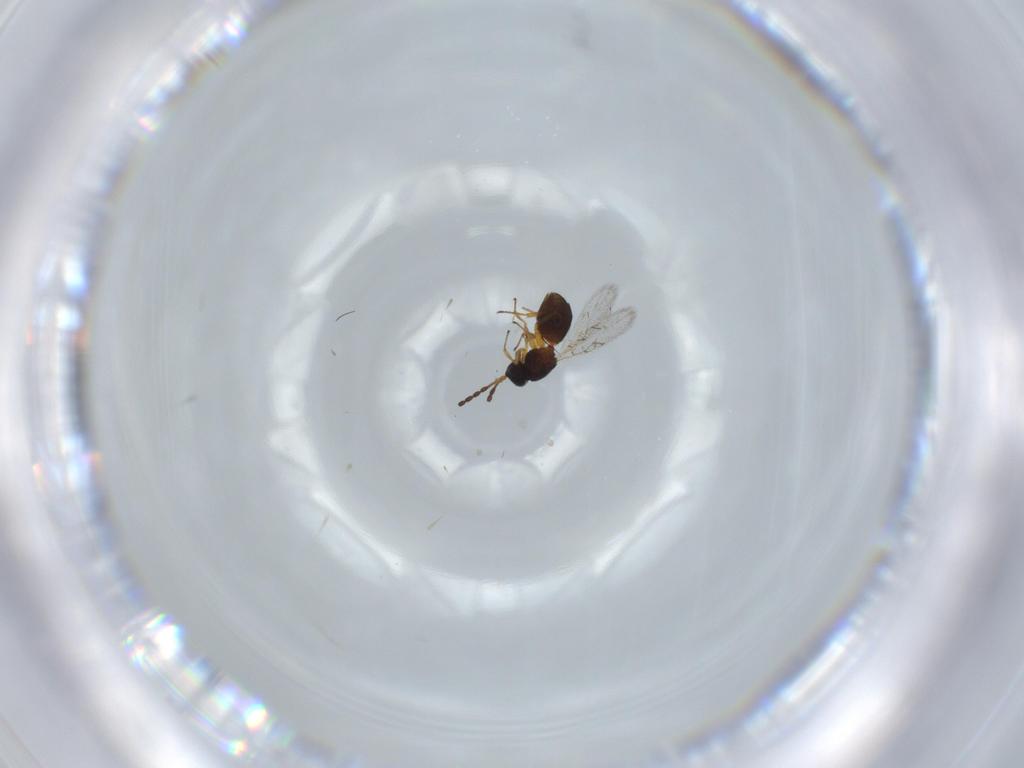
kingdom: Animalia
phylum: Arthropoda
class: Insecta
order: Hymenoptera
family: Figitidae
